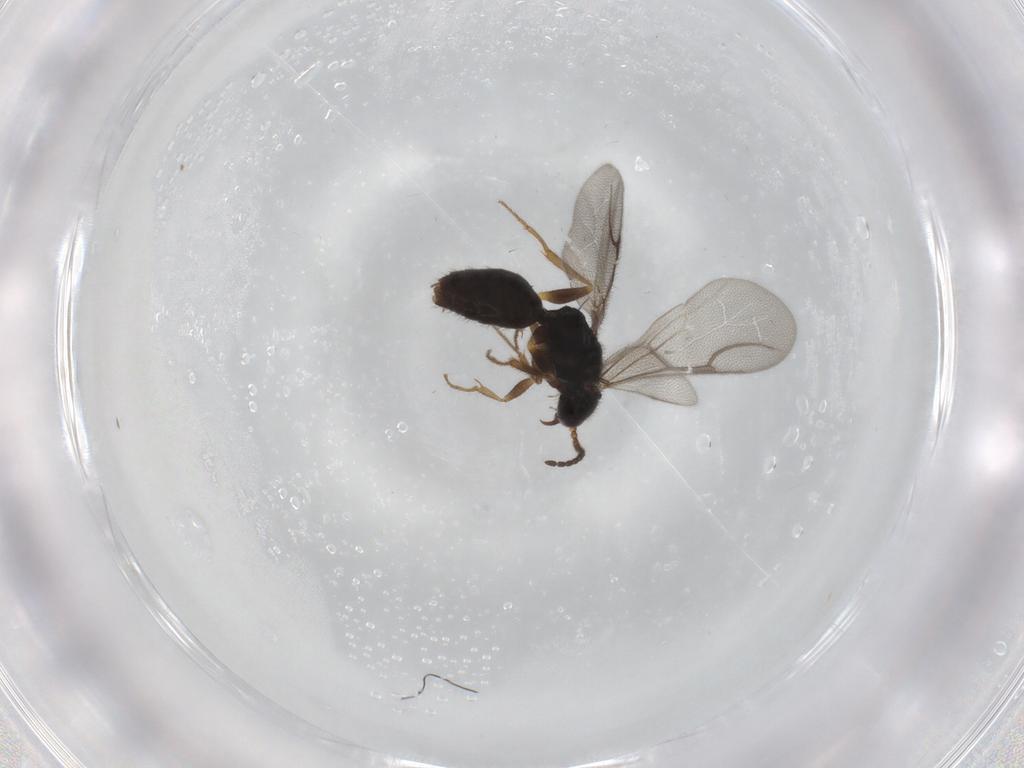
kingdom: Animalia
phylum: Arthropoda
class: Insecta
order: Hymenoptera
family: Bethylidae
